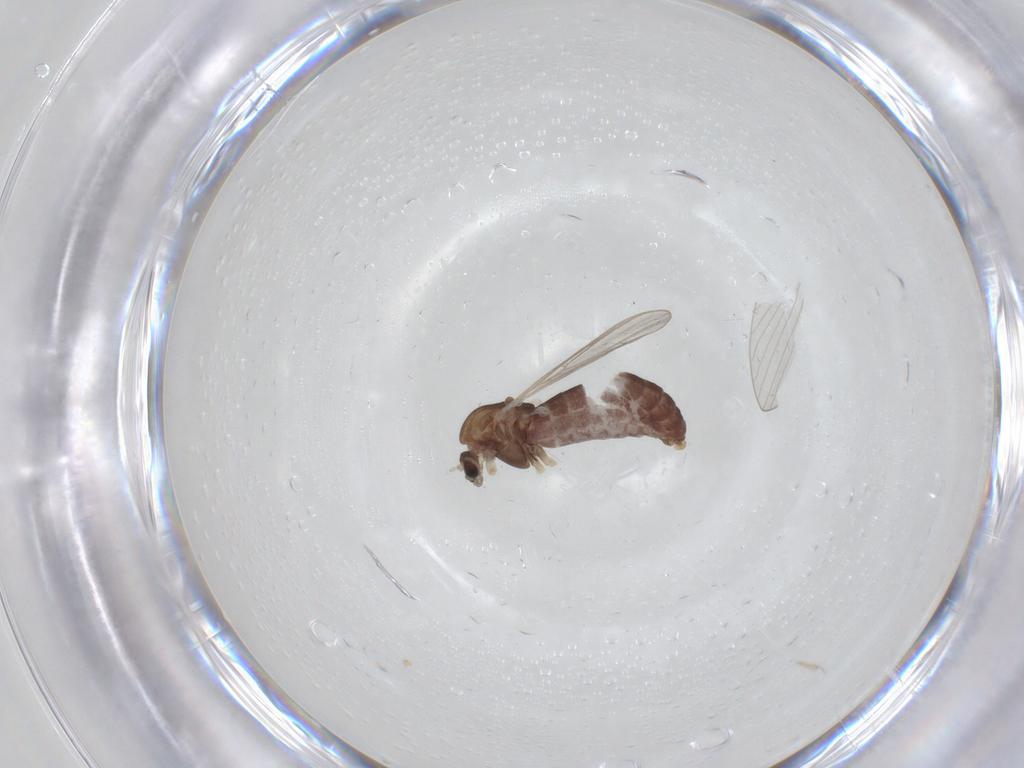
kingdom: Animalia
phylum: Arthropoda
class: Insecta
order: Diptera
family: Chironomidae
